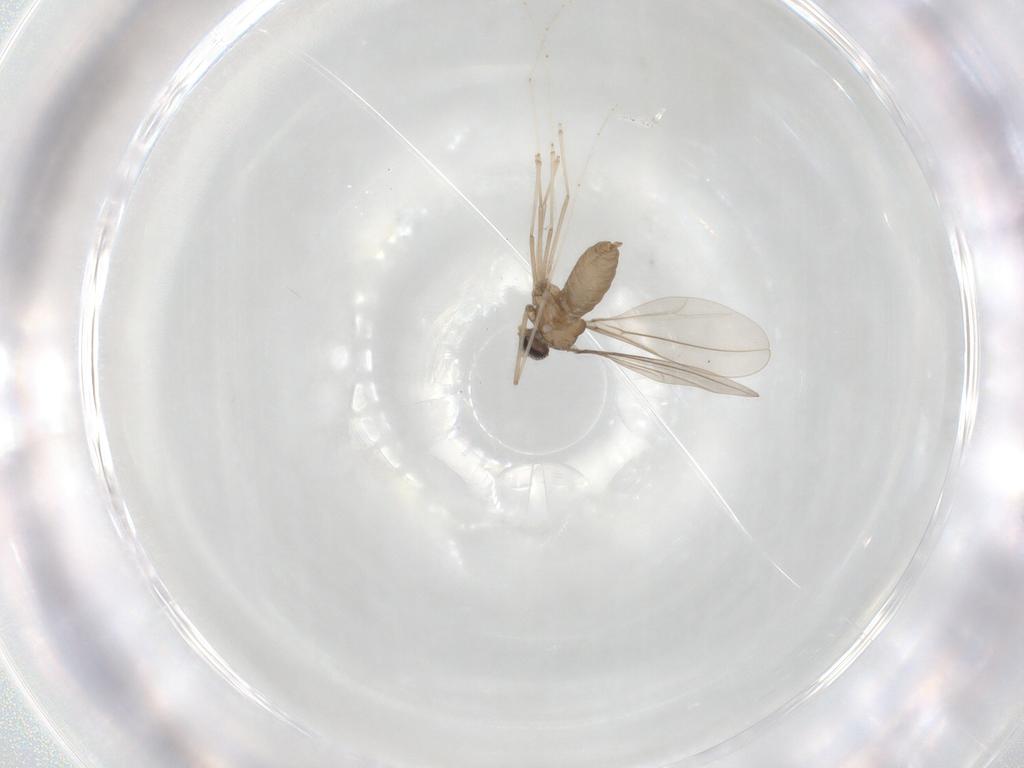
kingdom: Animalia
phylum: Arthropoda
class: Insecta
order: Diptera
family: Cecidomyiidae
